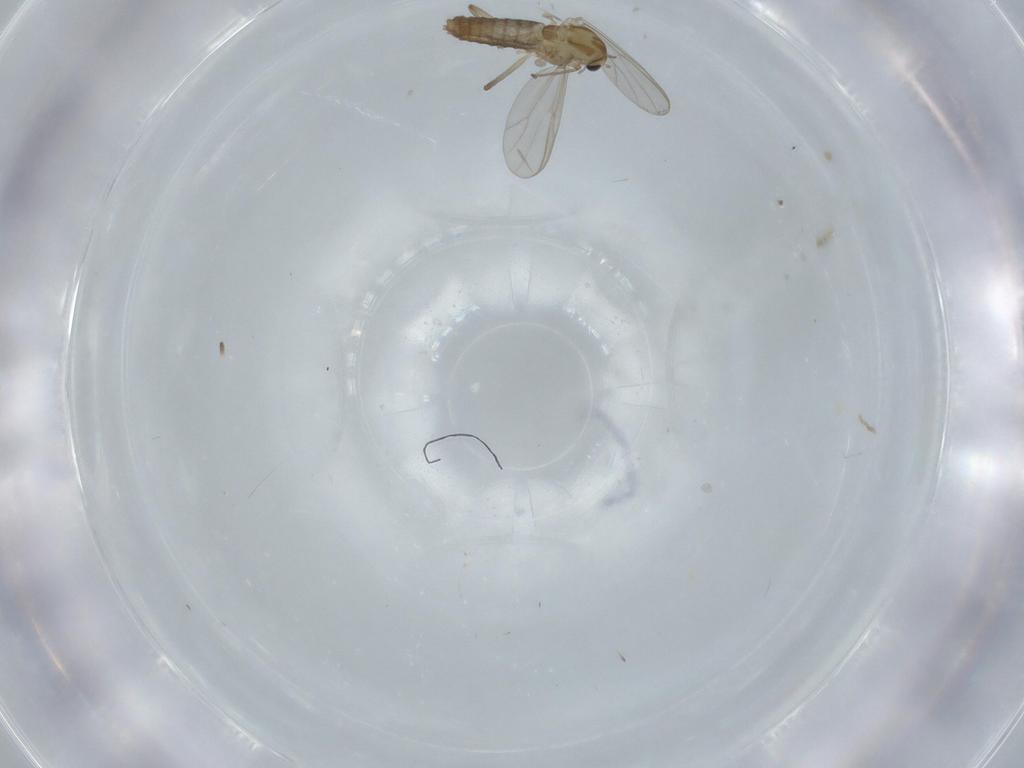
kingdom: Animalia
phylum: Arthropoda
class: Insecta
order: Diptera
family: Chironomidae
